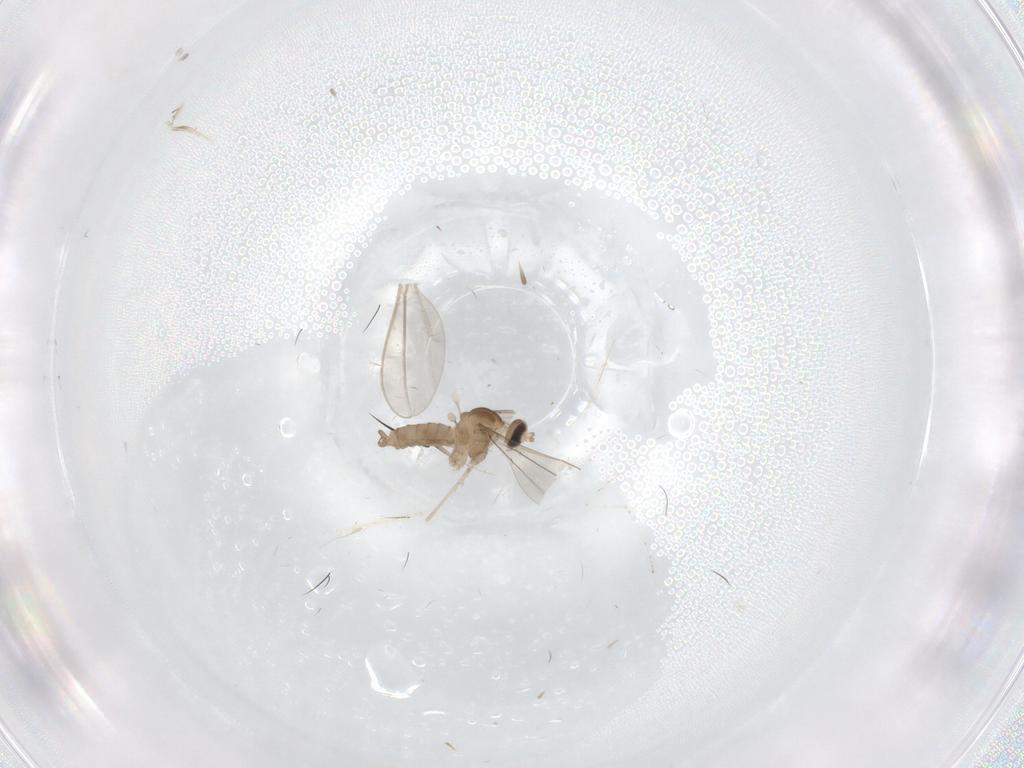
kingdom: Animalia
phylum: Arthropoda
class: Insecta
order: Diptera
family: Cecidomyiidae
